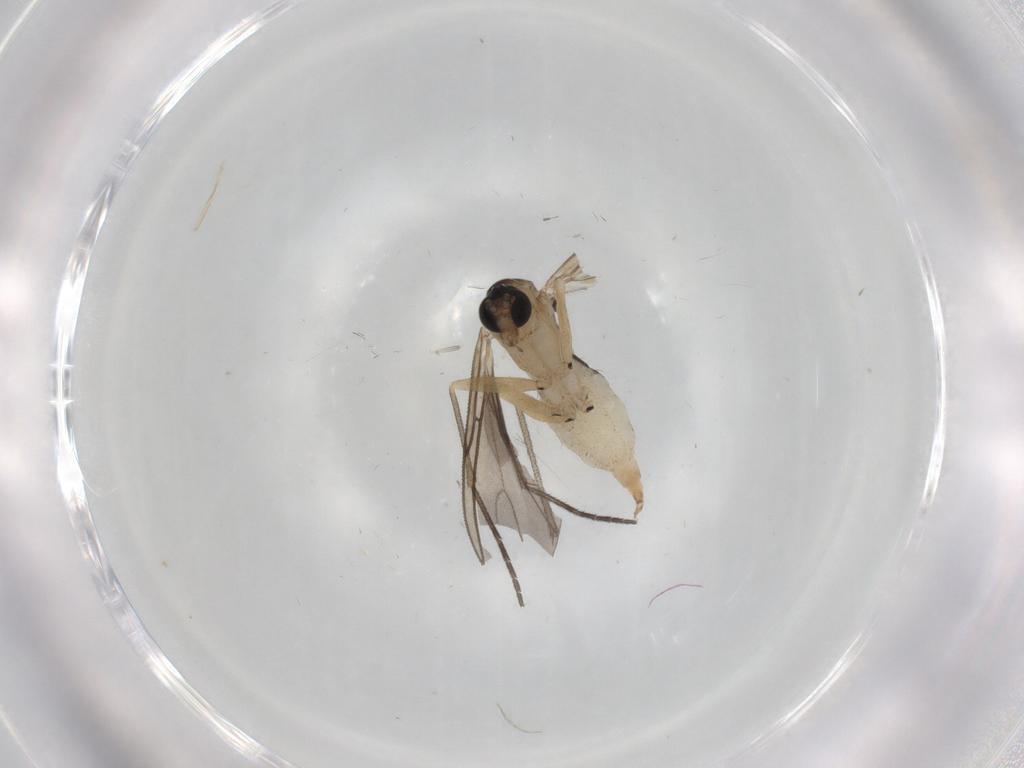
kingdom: Animalia
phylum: Arthropoda
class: Insecta
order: Diptera
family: Sciaridae
